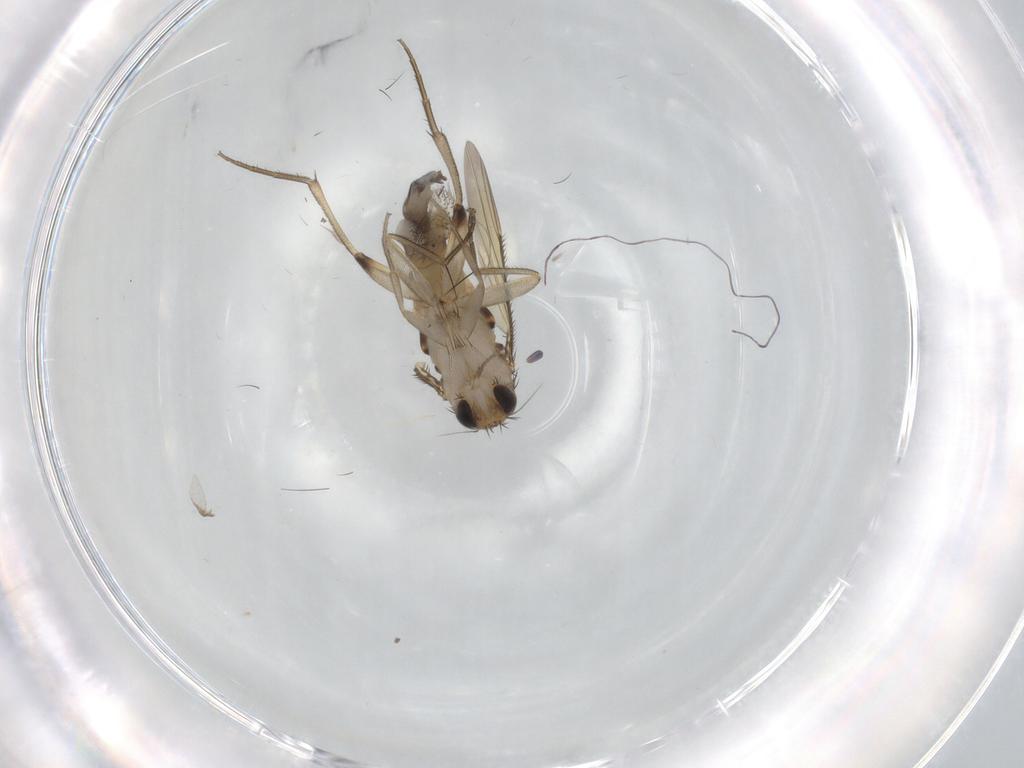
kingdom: Animalia
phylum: Arthropoda
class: Insecta
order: Diptera
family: Phoridae
